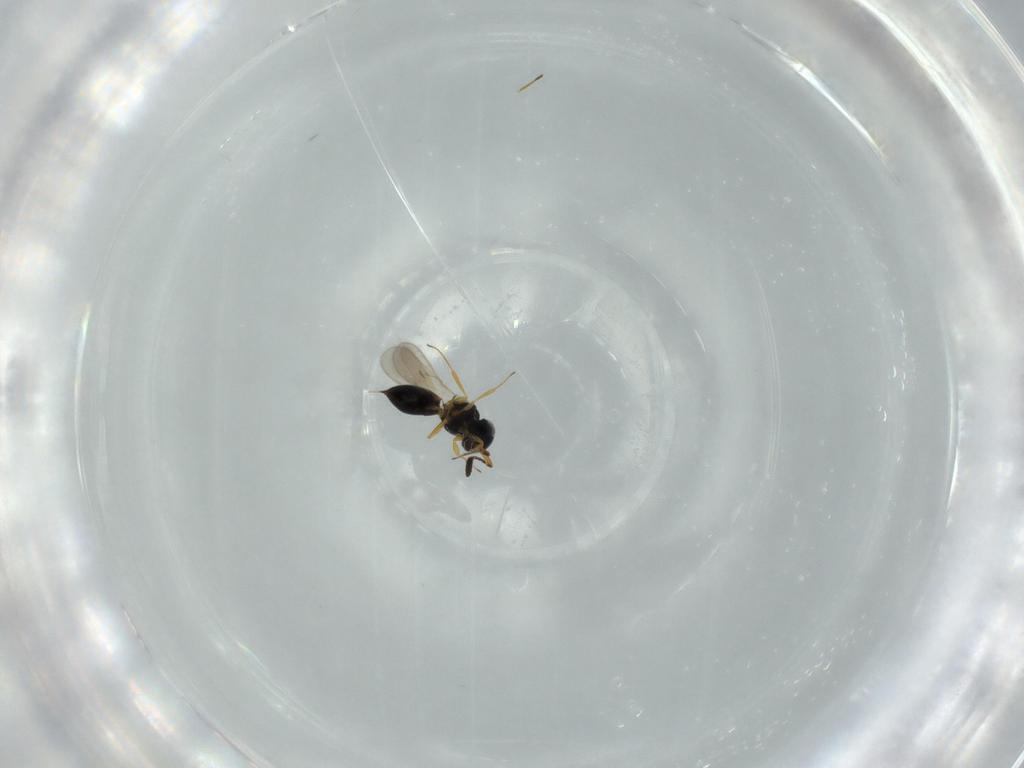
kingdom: Animalia
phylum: Arthropoda
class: Insecta
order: Hymenoptera
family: Scelionidae
